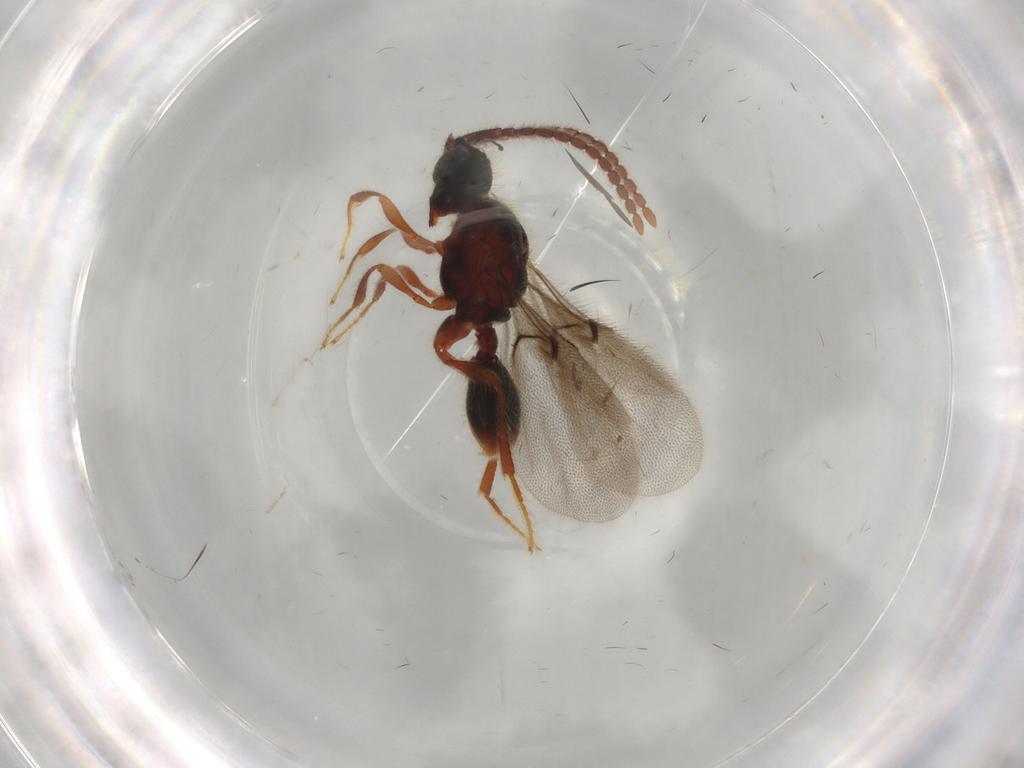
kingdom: Animalia
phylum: Arthropoda
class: Insecta
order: Hymenoptera
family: Diapriidae
